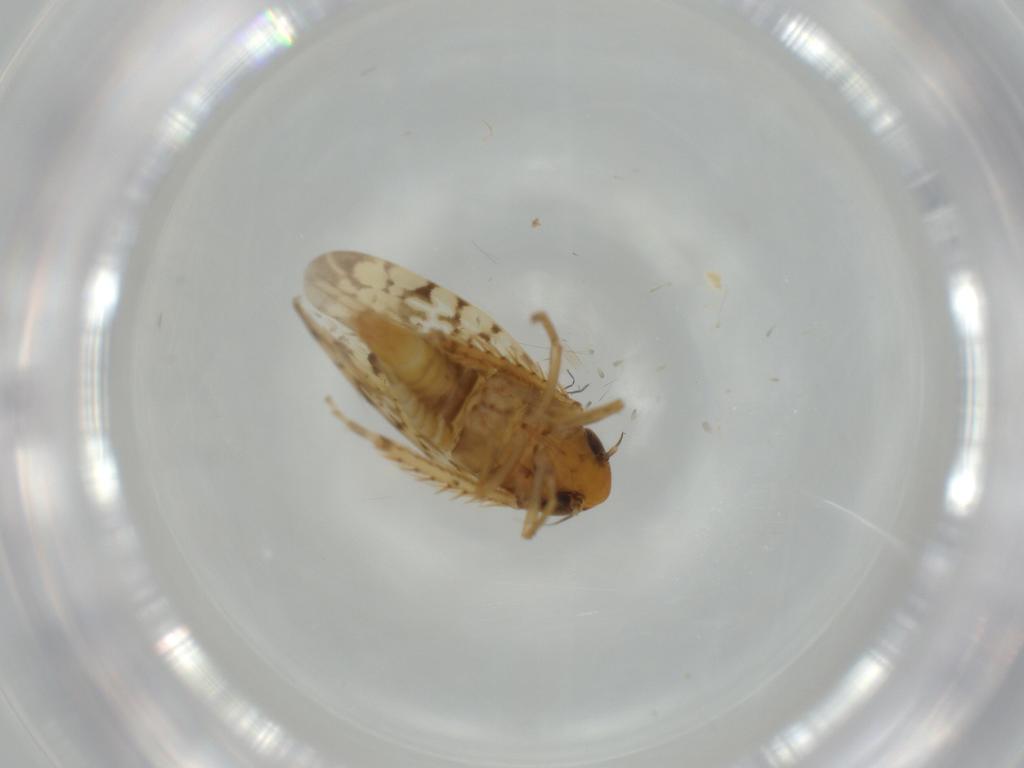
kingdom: Animalia
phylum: Arthropoda
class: Insecta
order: Hemiptera
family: Cicadellidae
